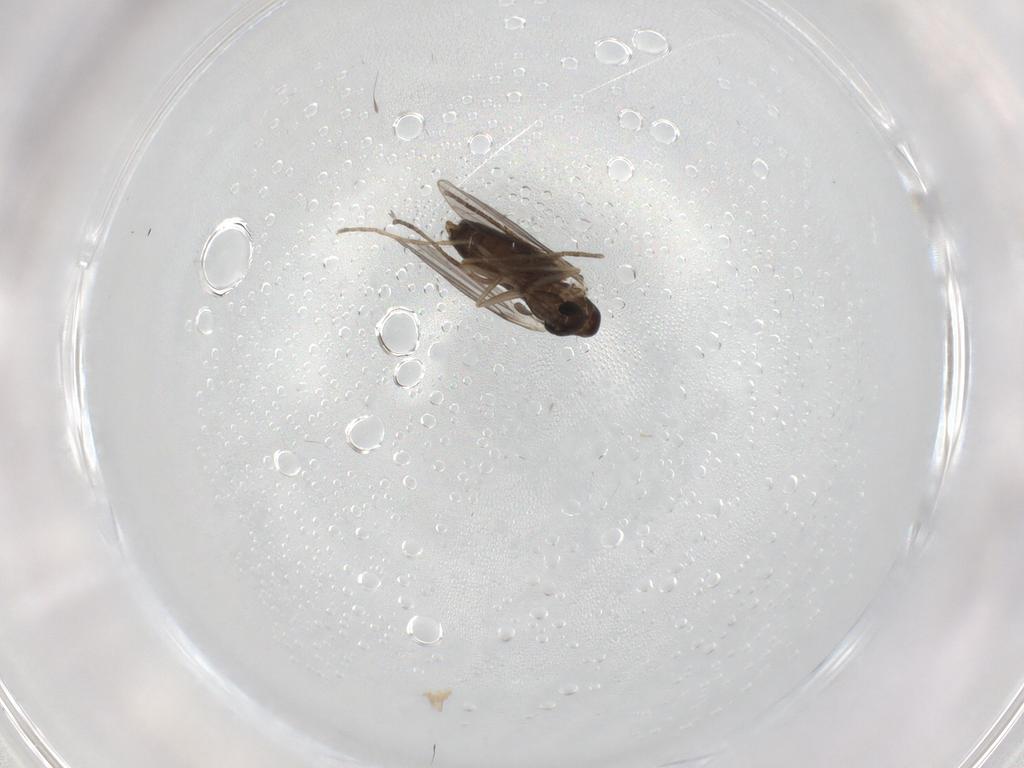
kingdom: Animalia
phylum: Arthropoda
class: Insecta
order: Diptera
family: Psychodidae
